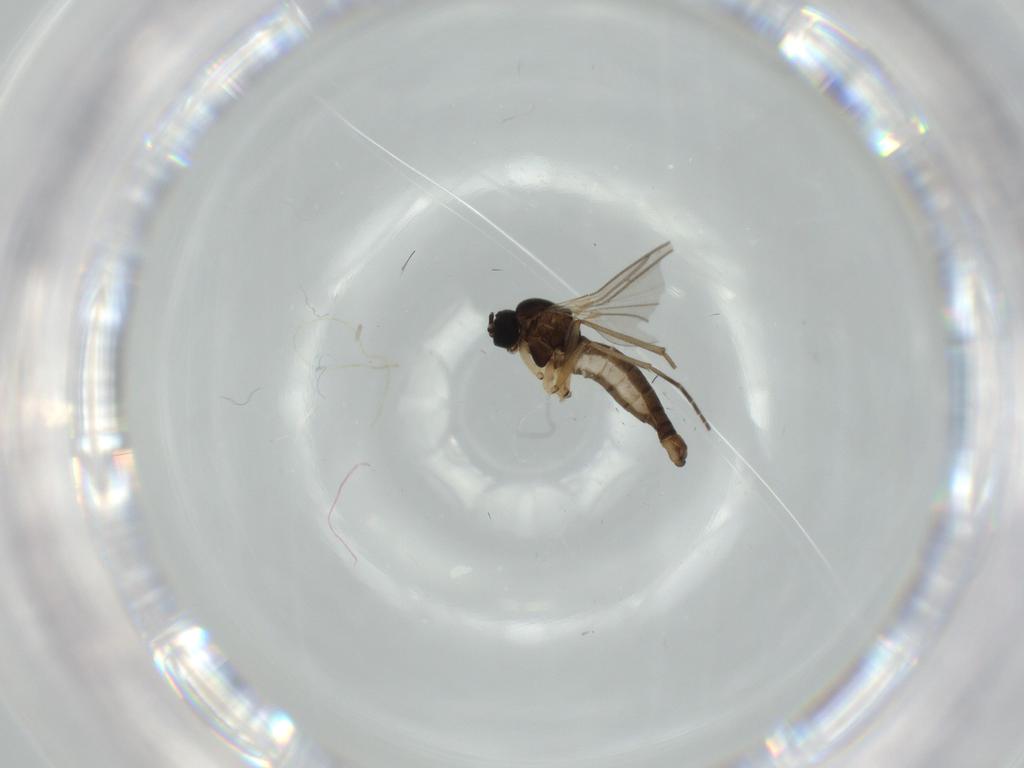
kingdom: Animalia
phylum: Arthropoda
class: Insecta
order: Diptera
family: Sciaridae
